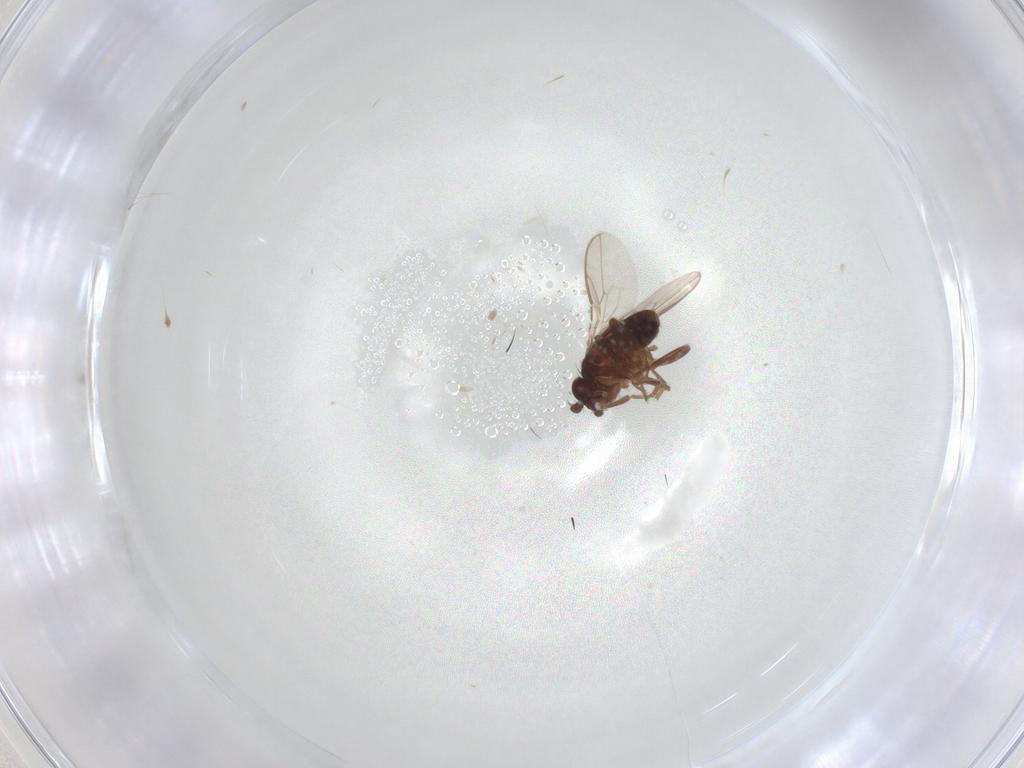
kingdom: Animalia
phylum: Arthropoda
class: Insecta
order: Diptera
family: Sphaeroceridae
